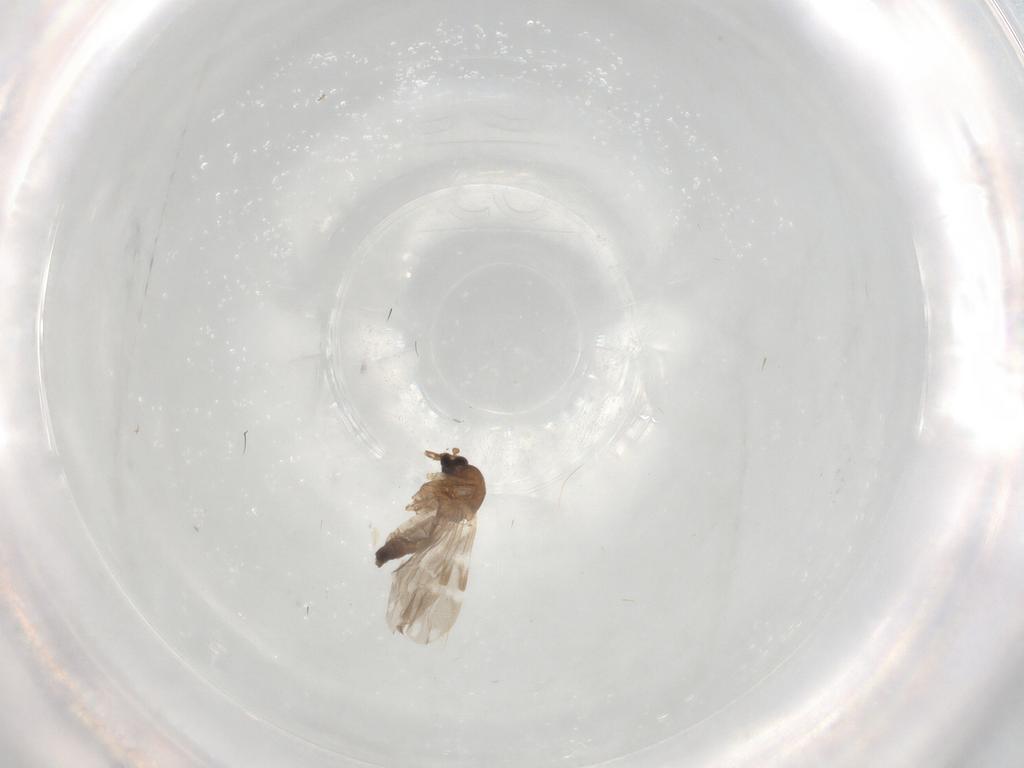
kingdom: Animalia
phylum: Arthropoda
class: Insecta
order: Diptera
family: Ceratopogonidae
